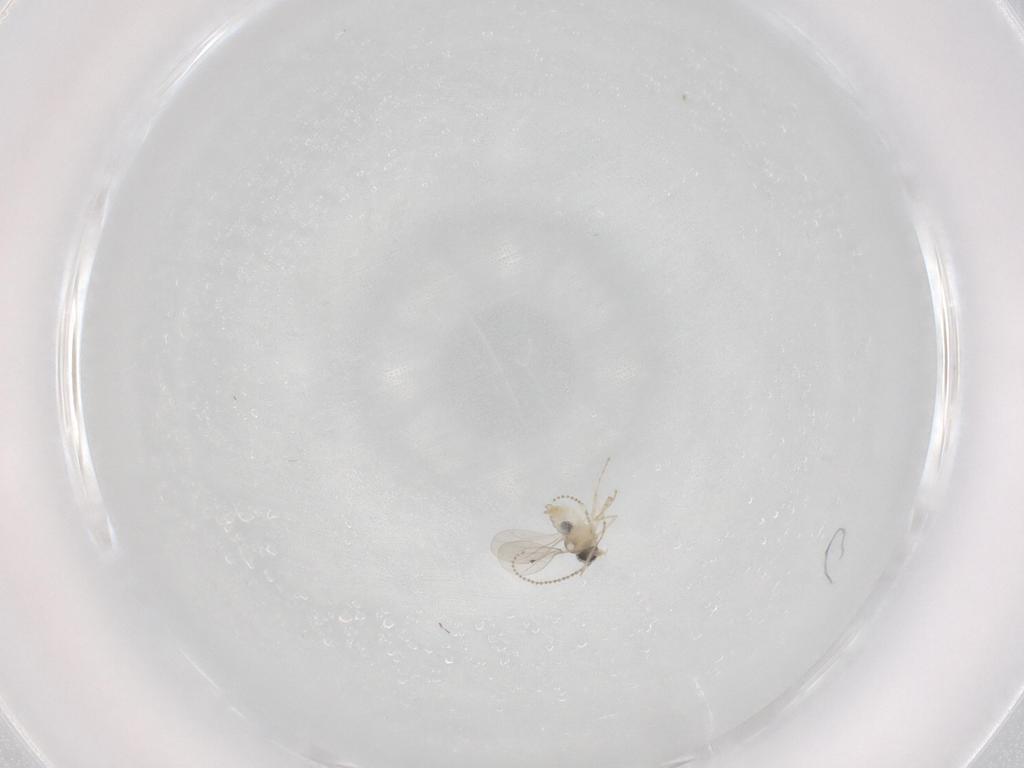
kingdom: Animalia
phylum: Arthropoda
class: Insecta
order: Diptera
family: Cecidomyiidae
